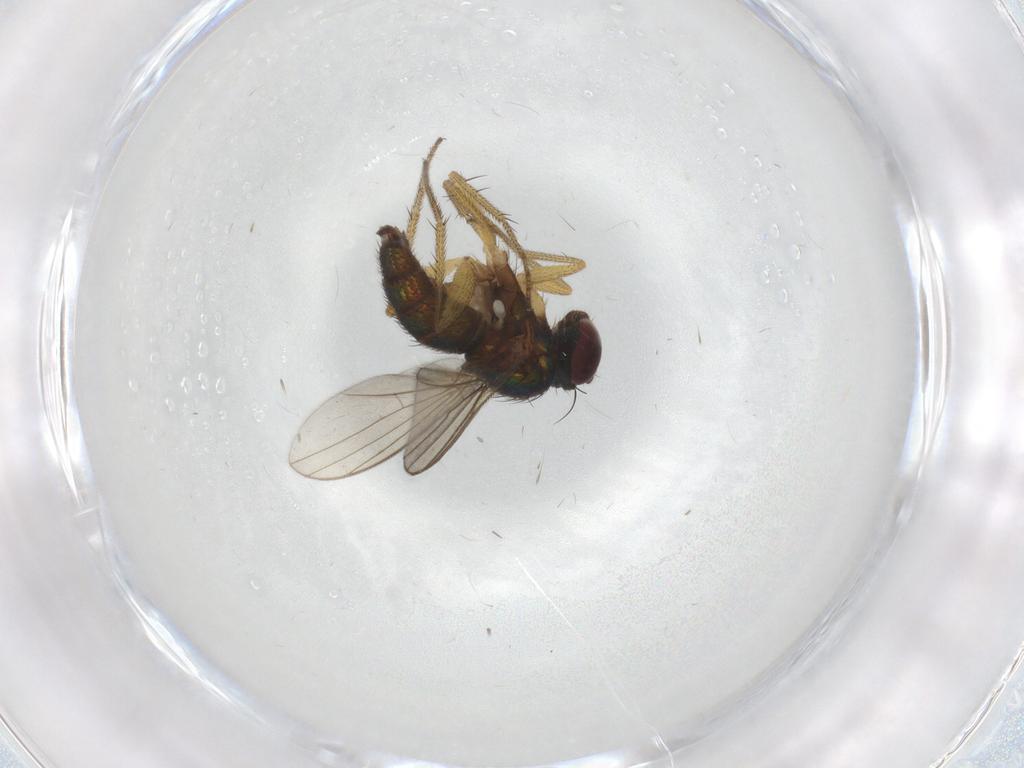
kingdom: Animalia
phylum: Arthropoda
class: Insecta
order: Diptera
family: Dolichopodidae
